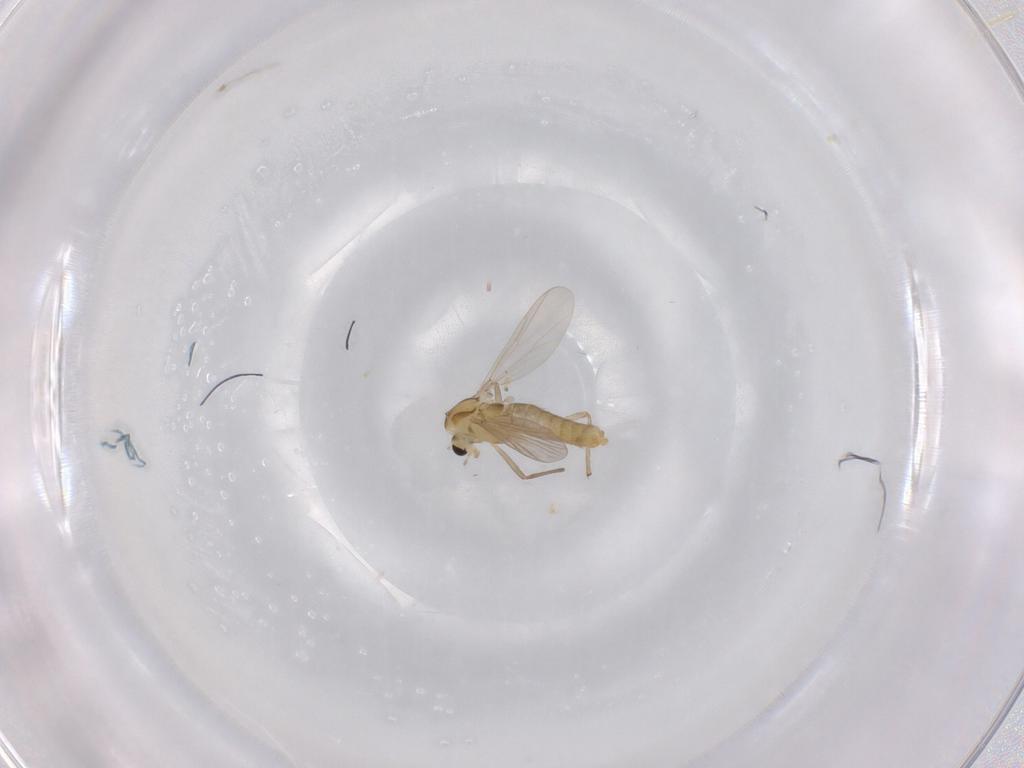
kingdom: Animalia
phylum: Arthropoda
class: Insecta
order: Diptera
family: Chironomidae
